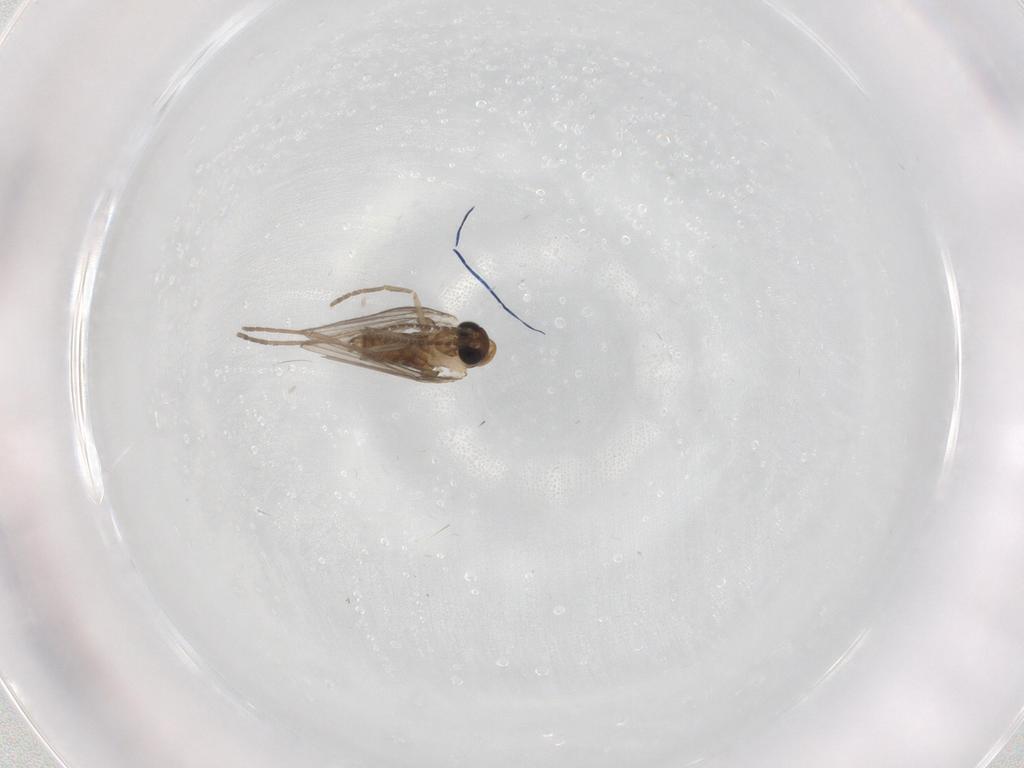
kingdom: Animalia
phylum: Arthropoda
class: Insecta
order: Diptera
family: Psychodidae
